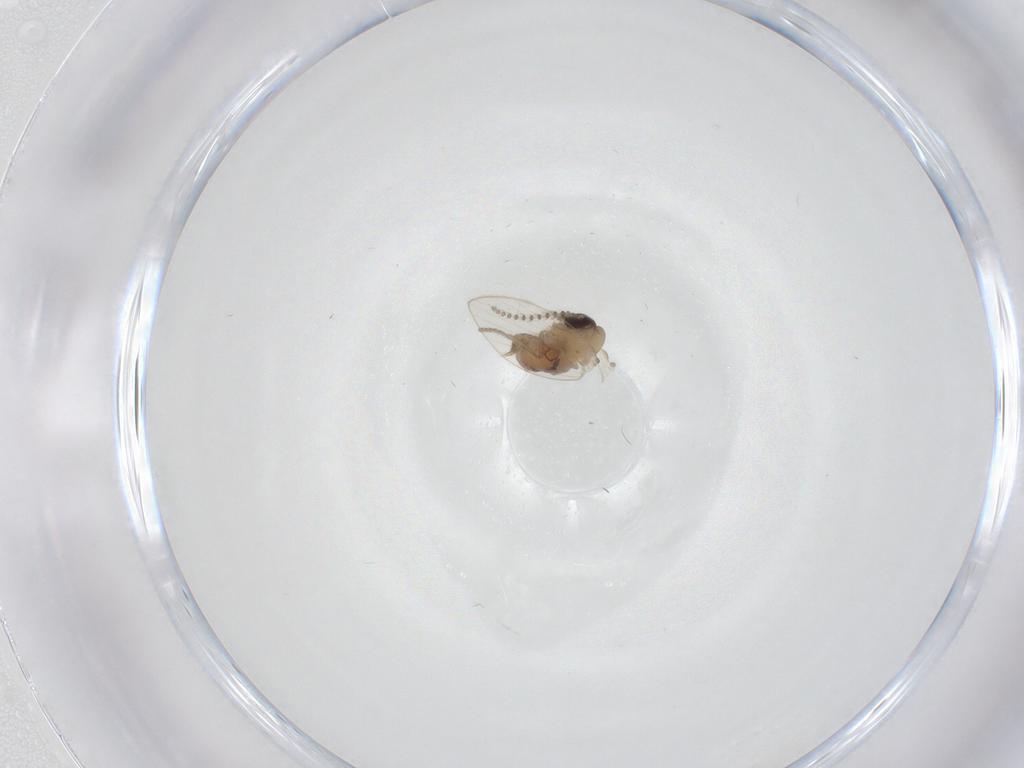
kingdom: Animalia
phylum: Arthropoda
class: Insecta
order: Diptera
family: Psychodidae
